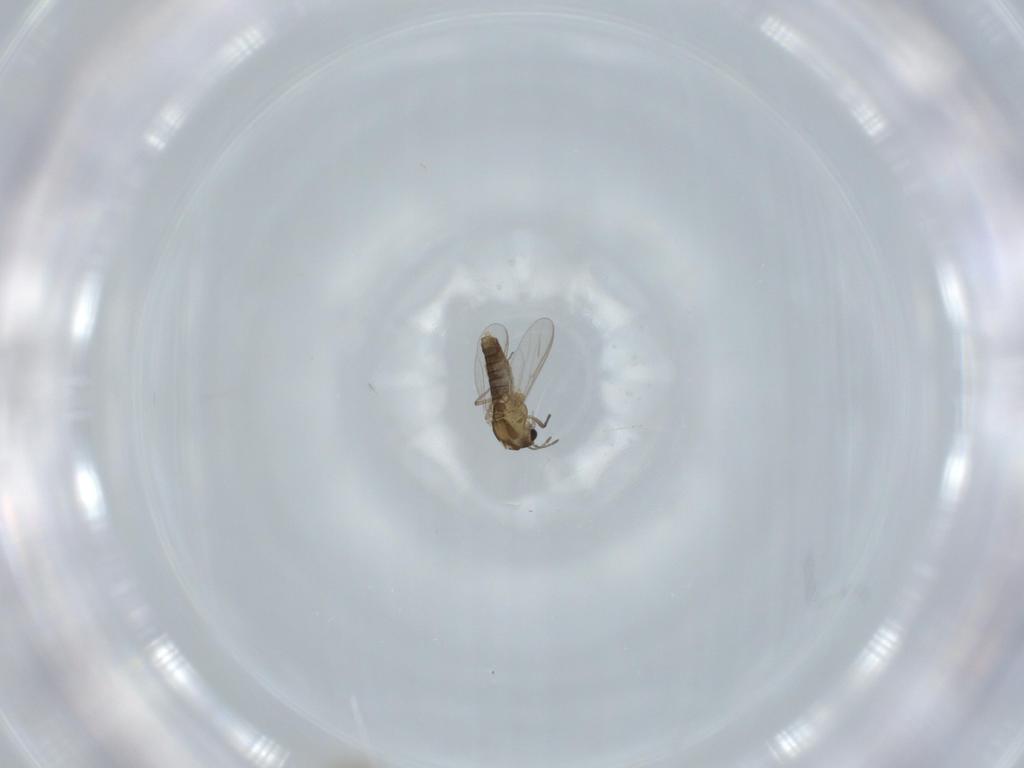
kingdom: Animalia
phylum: Arthropoda
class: Insecta
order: Diptera
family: Cecidomyiidae
